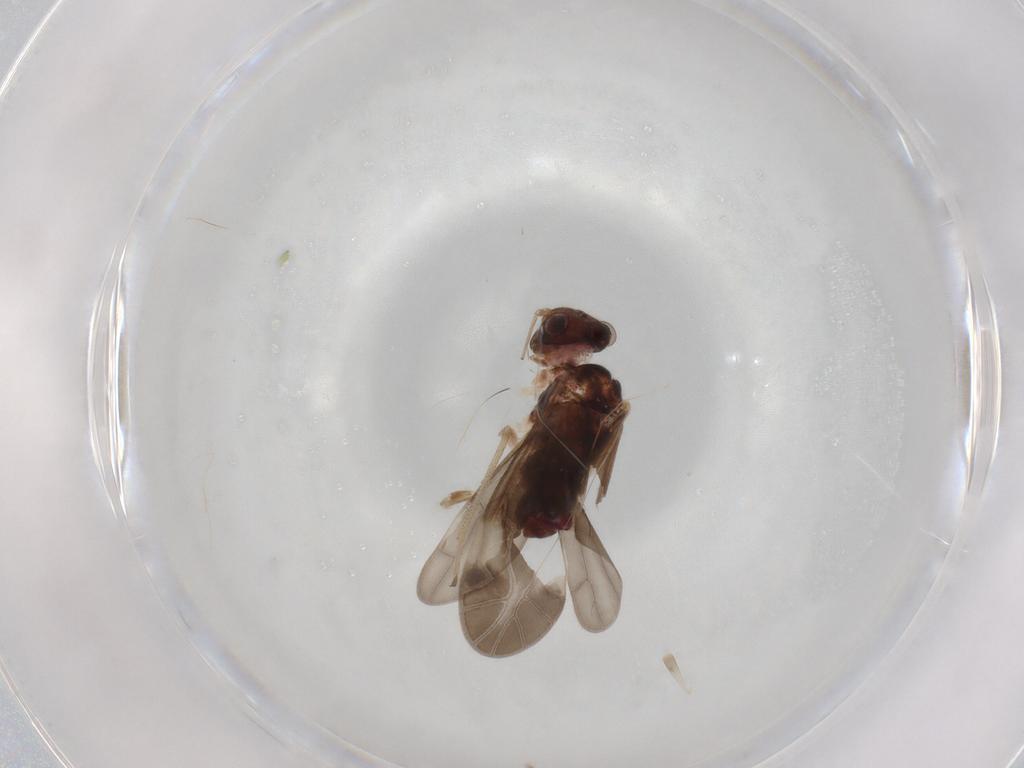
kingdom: Animalia
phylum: Arthropoda
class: Insecta
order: Psocodea
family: Caeciliusidae
